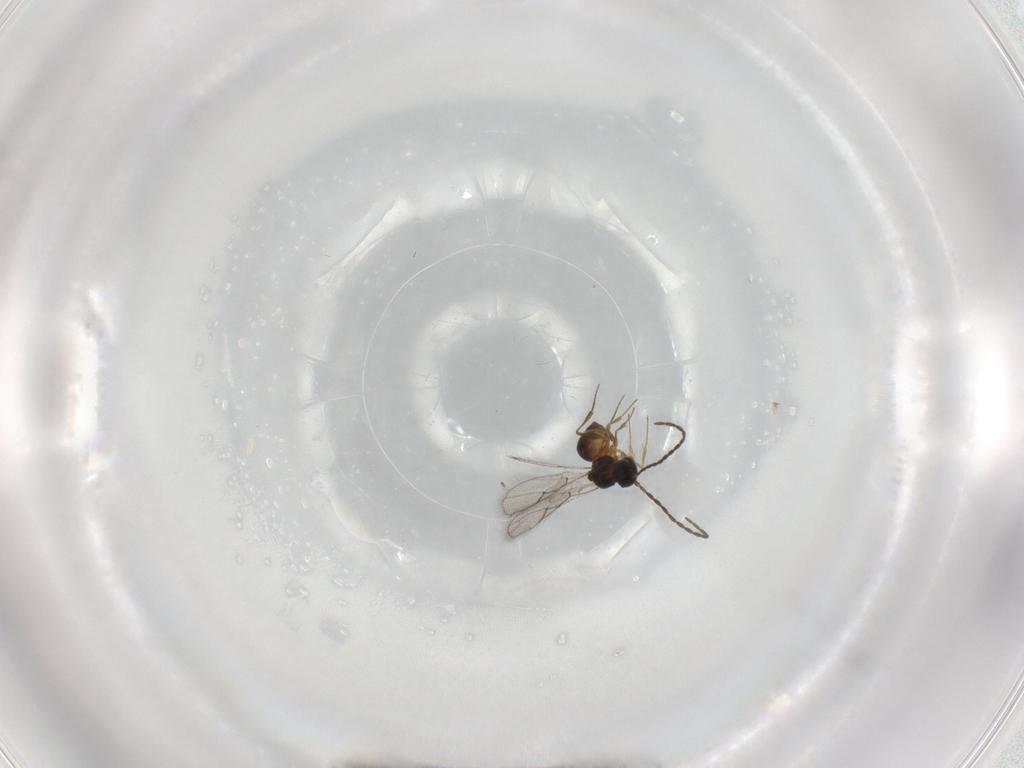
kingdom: Animalia
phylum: Arthropoda
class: Insecta
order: Hymenoptera
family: Figitidae
